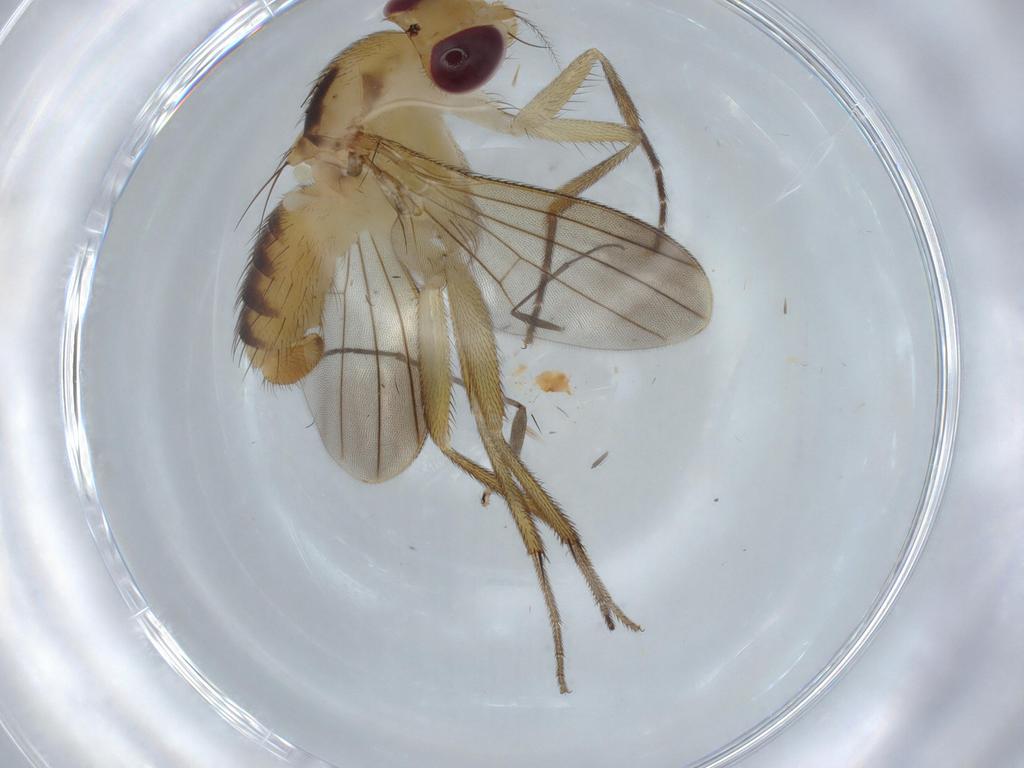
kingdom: Animalia
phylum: Arthropoda
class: Insecta
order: Diptera
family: Clusiidae
